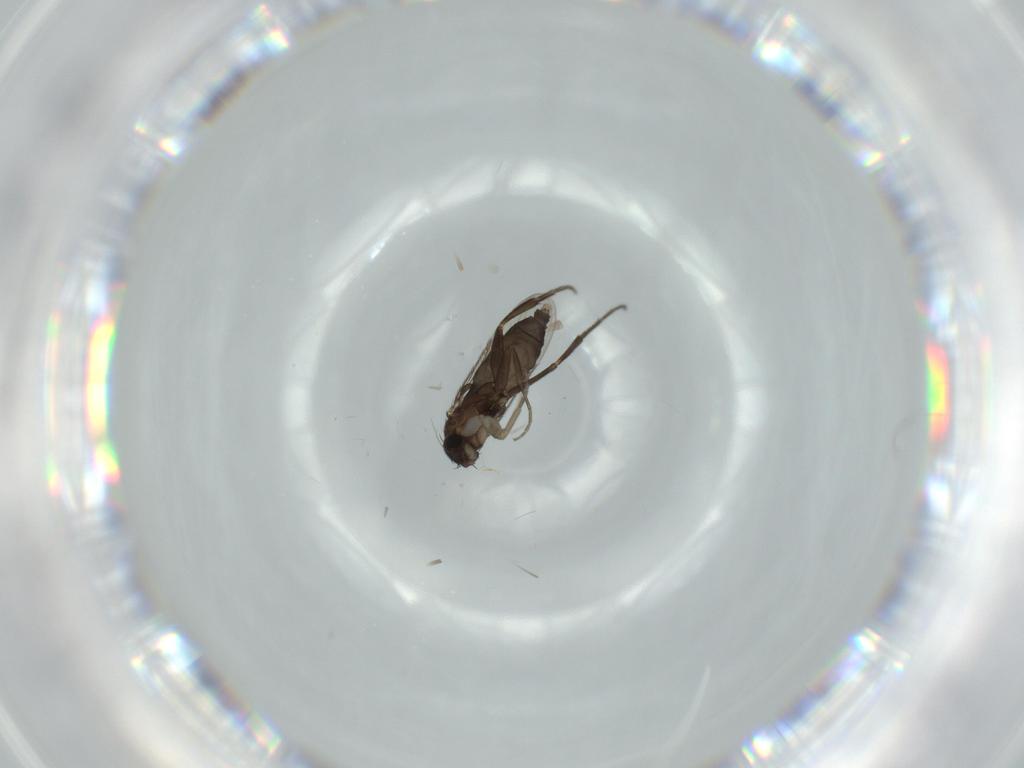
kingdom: Animalia
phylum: Arthropoda
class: Insecta
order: Diptera
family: Phoridae
